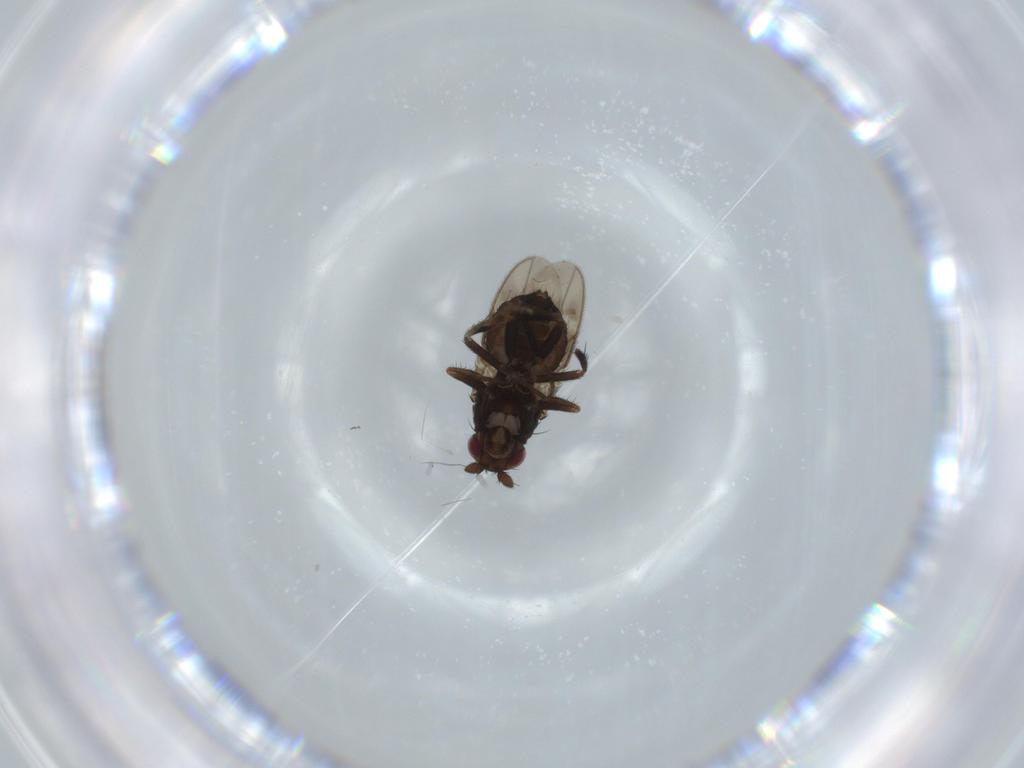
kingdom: Animalia
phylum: Arthropoda
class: Insecta
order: Diptera
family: Sphaeroceridae
